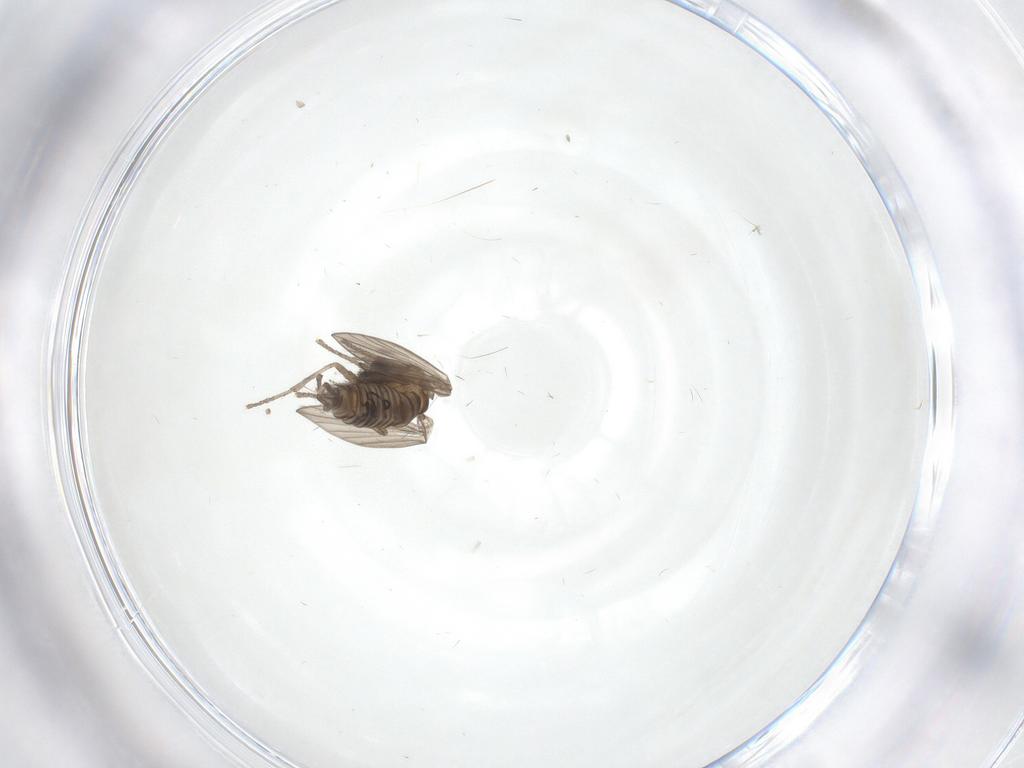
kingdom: Animalia
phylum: Arthropoda
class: Insecta
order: Diptera
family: Psychodidae
